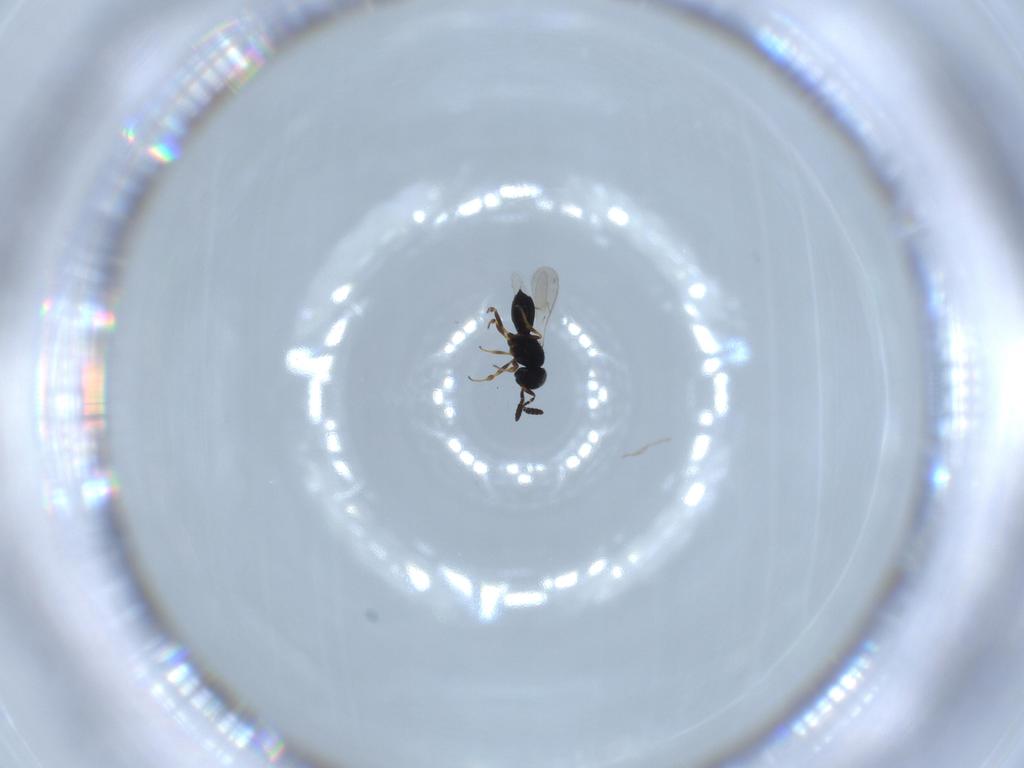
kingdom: Animalia
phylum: Arthropoda
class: Insecta
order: Hymenoptera
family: Scelionidae
